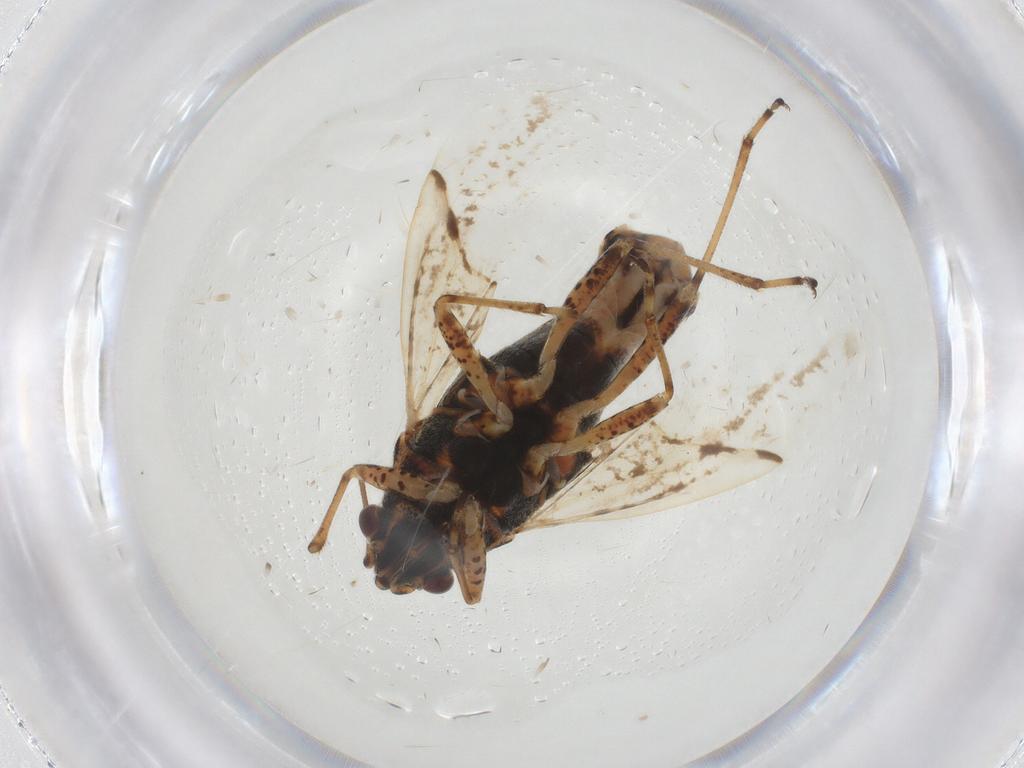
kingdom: Animalia
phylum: Arthropoda
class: Insecta
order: Hemiptera
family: Lygaeidae
